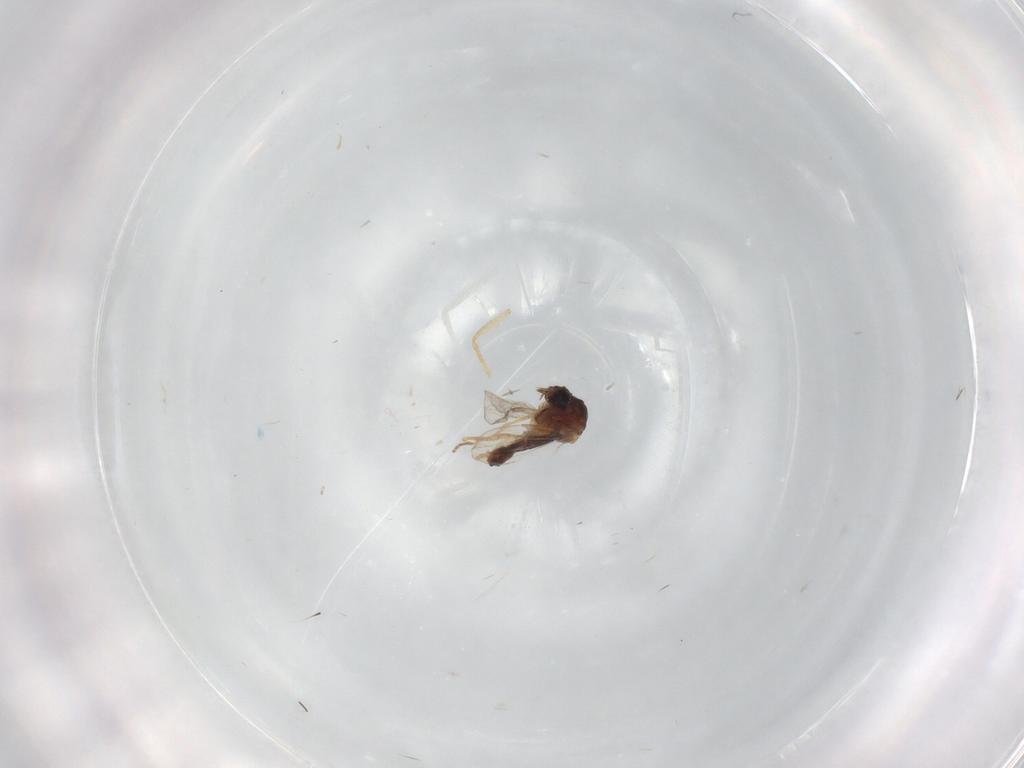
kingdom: Animalia
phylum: Arthropoda
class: Insecta
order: Diptera
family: Ceratopogonidae
